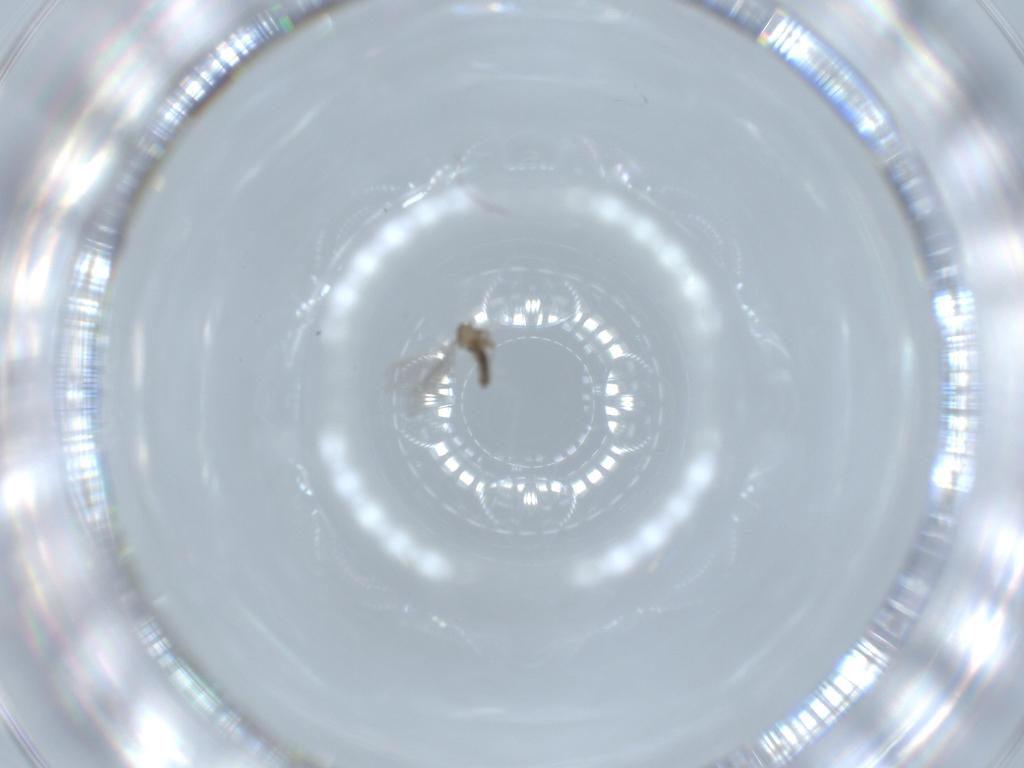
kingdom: Animalia
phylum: Arthropoda
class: Insecta
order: Diptera
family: Cecidomyiidae
